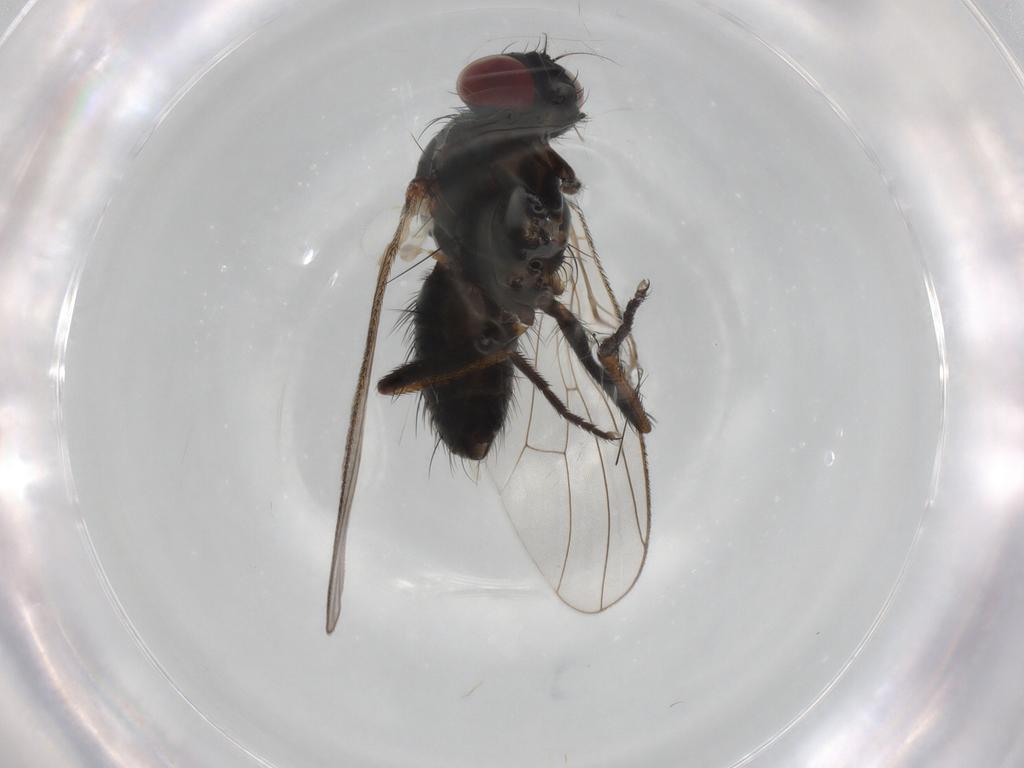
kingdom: Animalia
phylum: Arthropoda
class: Insecta
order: Diptera
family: Muscidae
